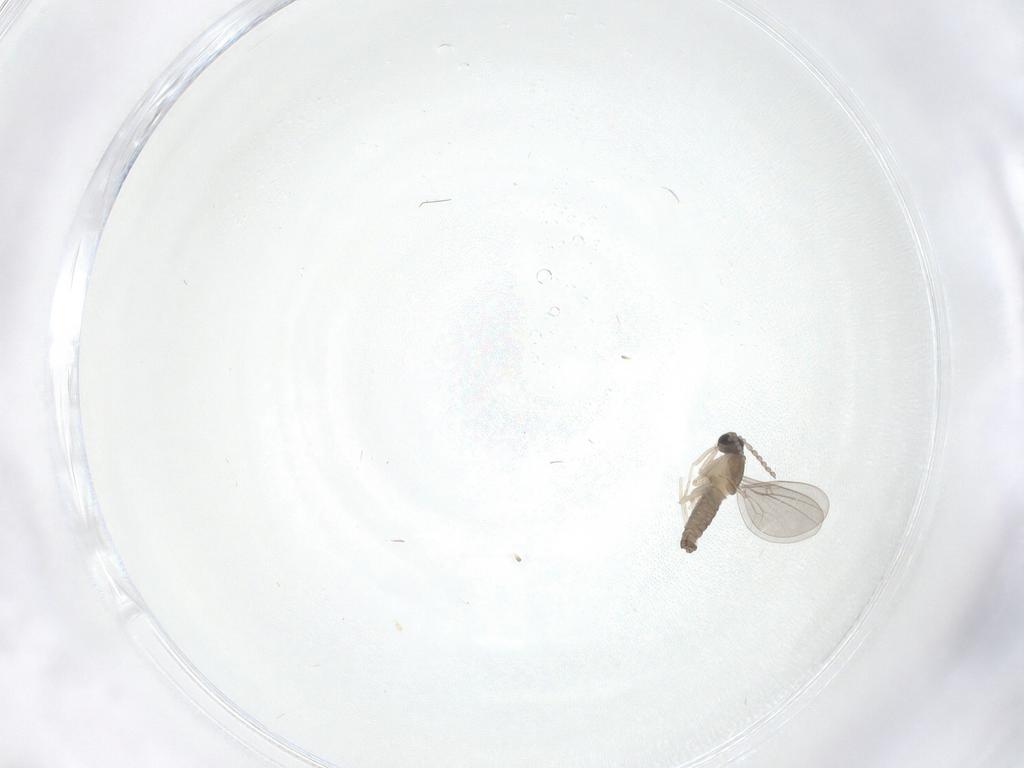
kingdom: Animalia
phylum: Arthropoda
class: Insecta
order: Diptera
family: Cecidomyiidae
